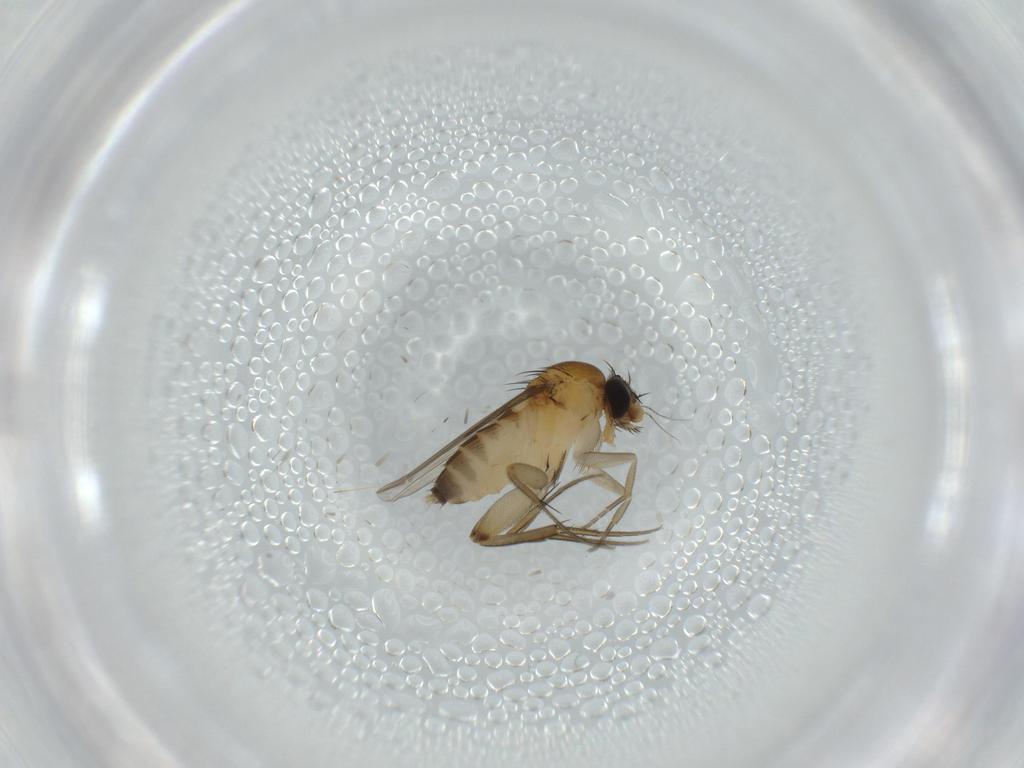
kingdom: Animalia
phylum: Arthropoda
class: Insecta
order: Diptera
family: Phoridae
